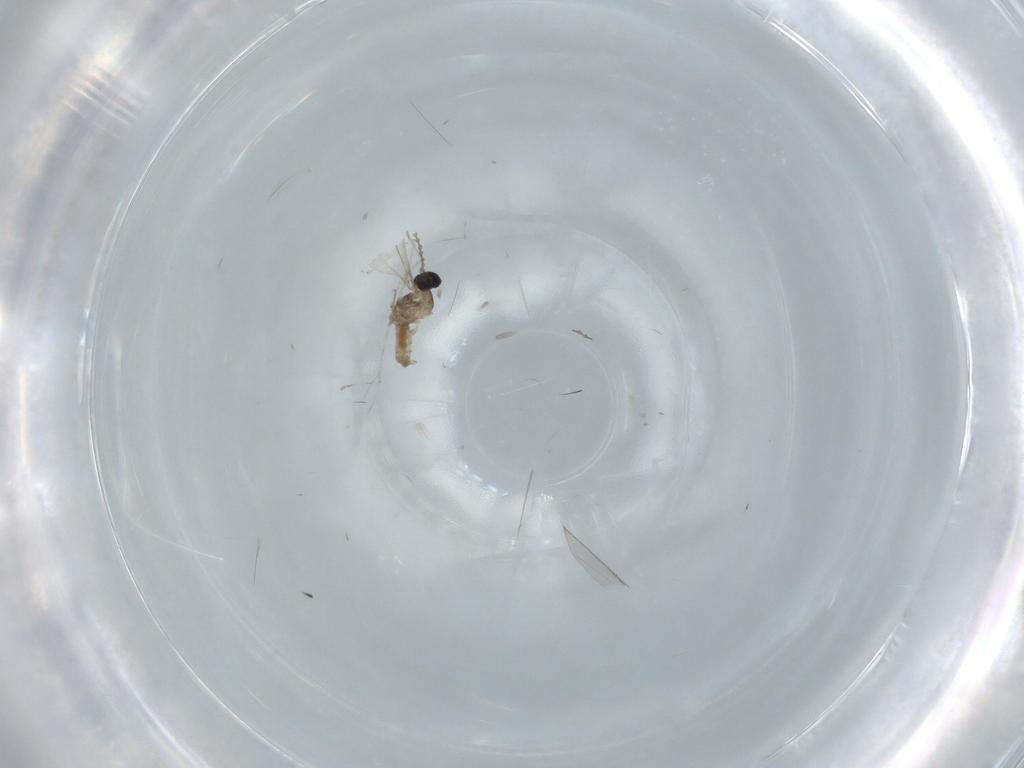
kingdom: Animalia
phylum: Arthropoda
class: Insecta
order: Diptera
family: Cecidomyiidae
